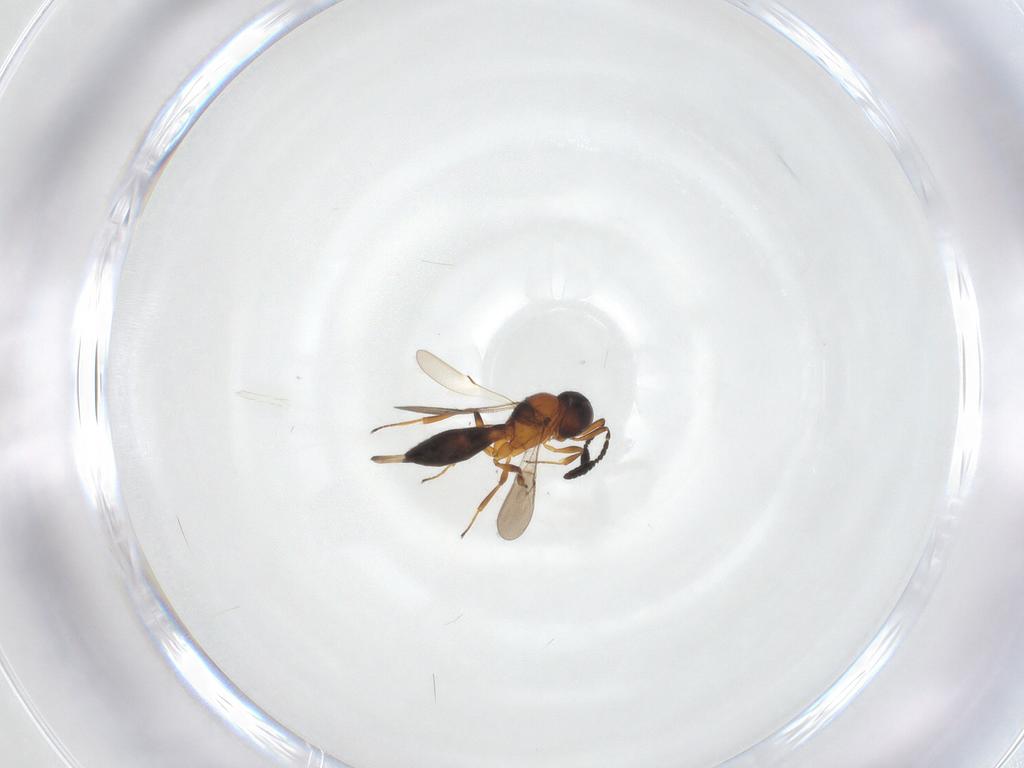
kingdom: Animalia
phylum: Arthropoda
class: Insecta
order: Hymenoptera
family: Scelionidae
